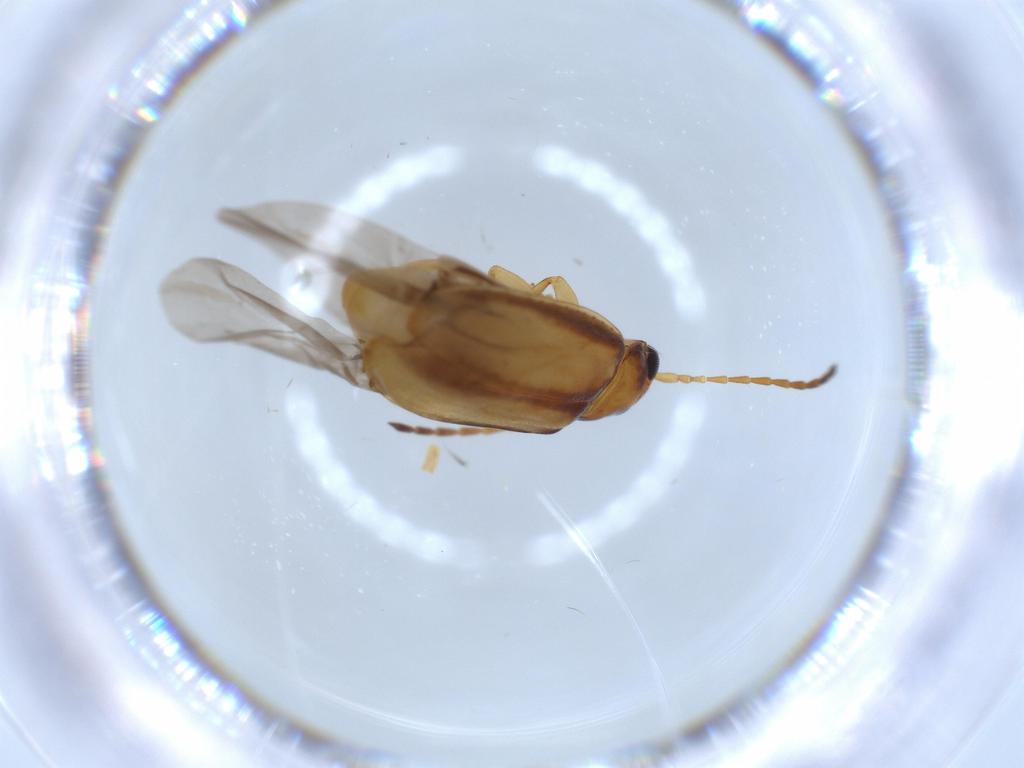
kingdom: Animalia
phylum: Arthropoda
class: Insecta
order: Coleoptera
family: Chrysomelidae
